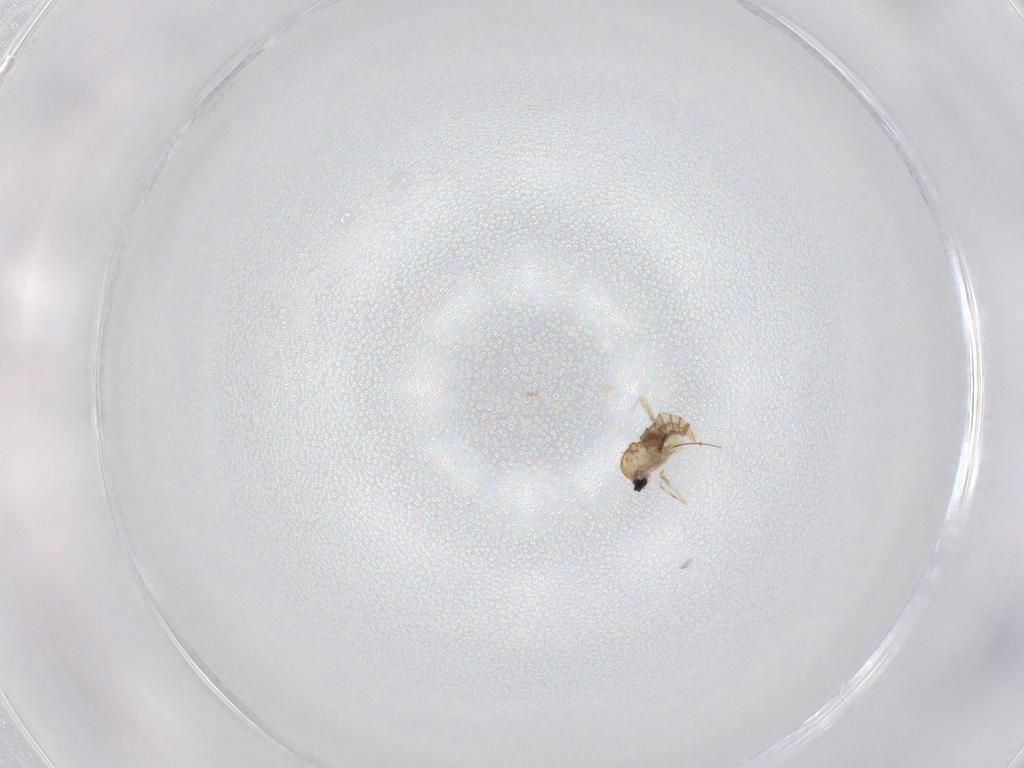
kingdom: Animalia
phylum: Arthropoda
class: Insecta
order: Diptera
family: Cecidomyiidae
